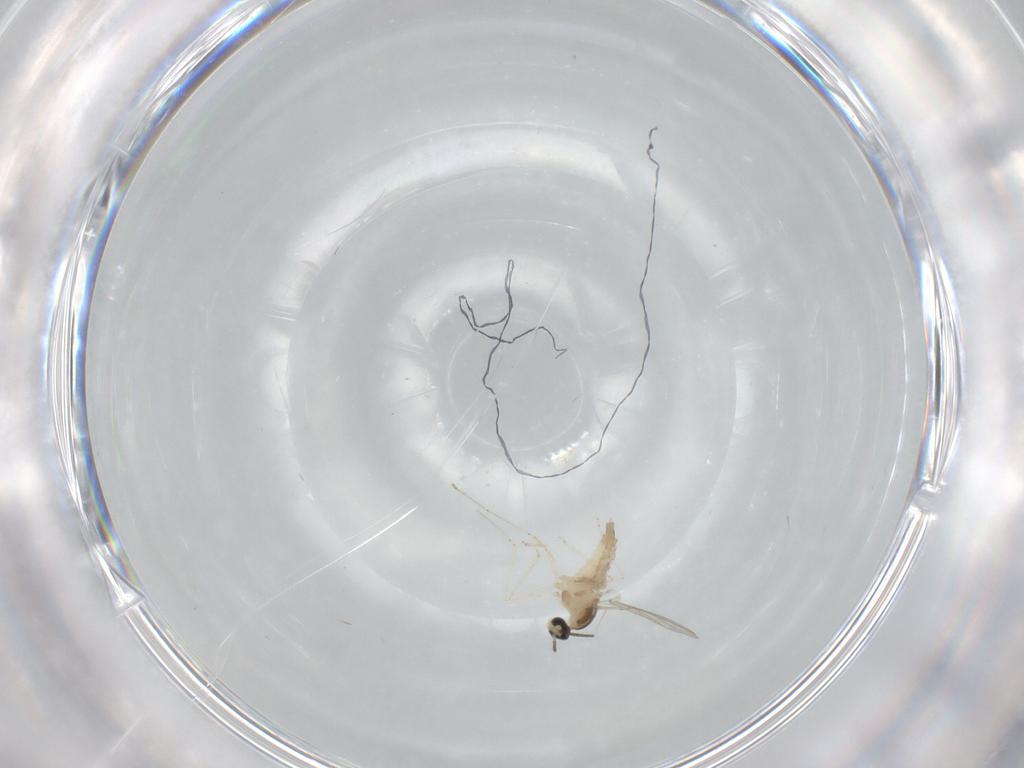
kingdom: Animalia
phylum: Arthropoda
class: Insecta
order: Diptera
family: Cecidomyiidae
